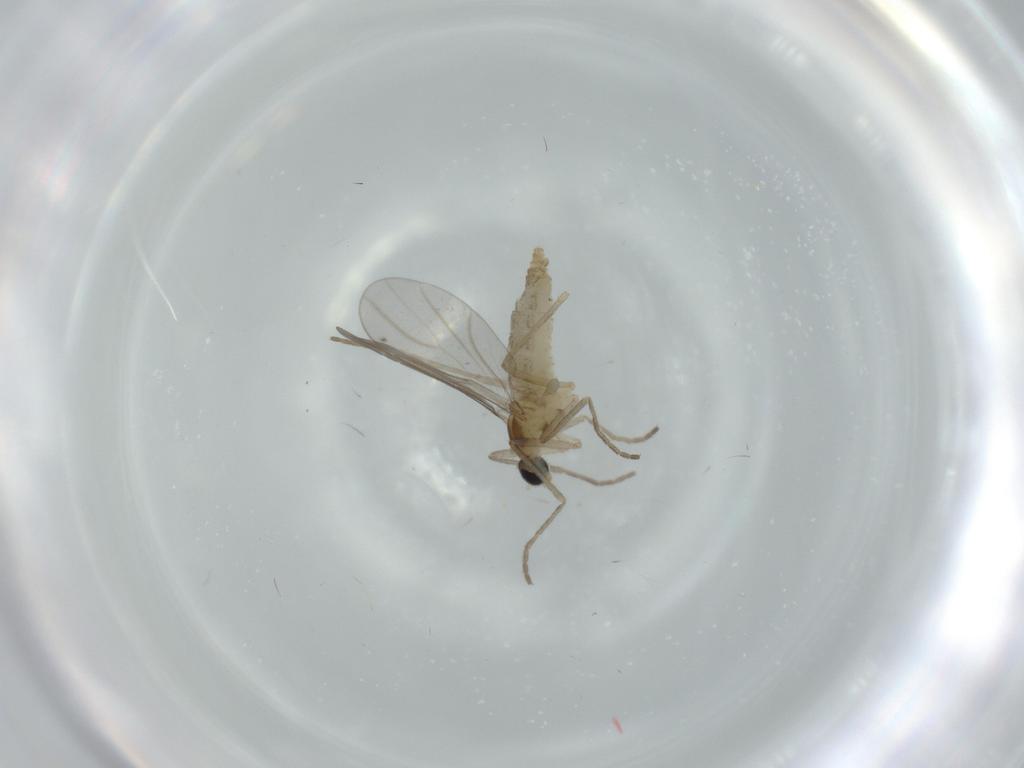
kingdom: Animalia
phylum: Arthropoda
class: Insecta
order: Diptera
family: Cecidomyiidae
